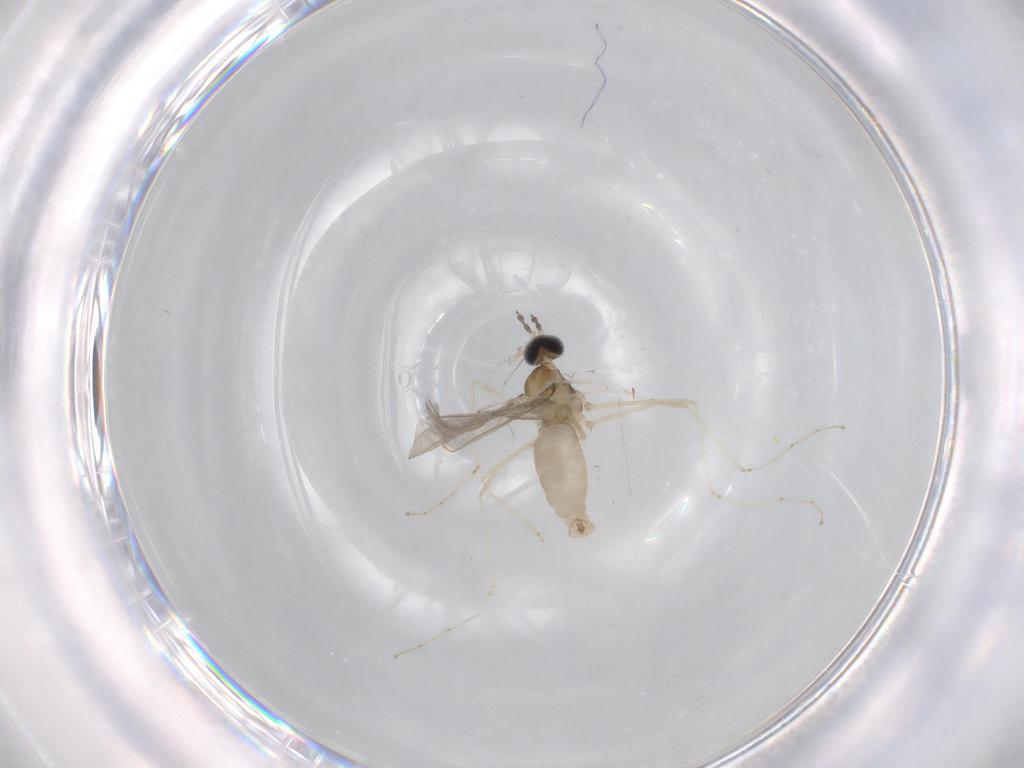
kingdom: Animalia
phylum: Arthropoda
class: Insecta
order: Diptera
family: Cecidomyiidae
